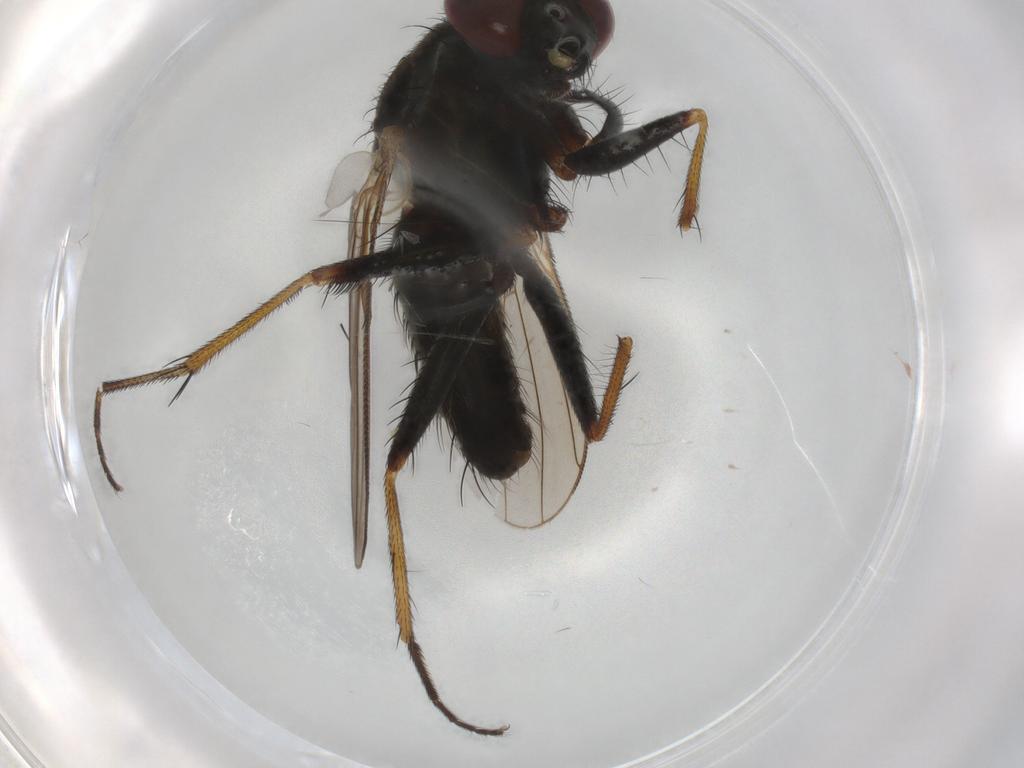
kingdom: Animalia
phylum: Arthropoda
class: Insecta
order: Diptera
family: Muscidae
